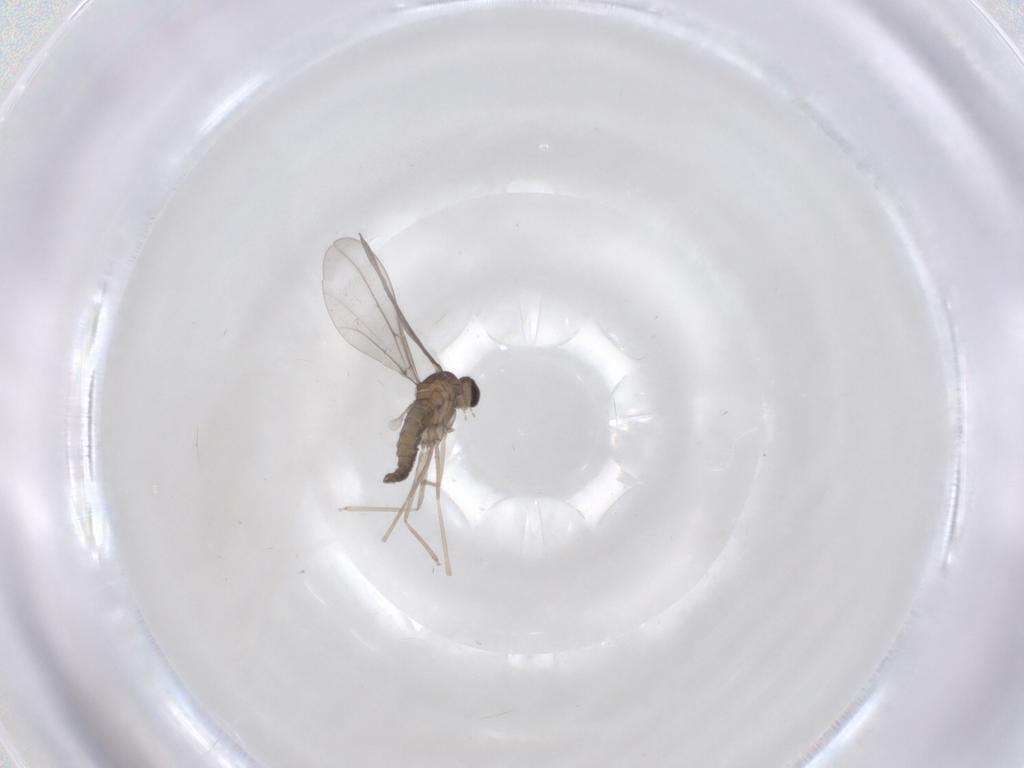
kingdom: Animalia
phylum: Arthropoda
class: Insecta
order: Diptera
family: Cecidomyiidae
